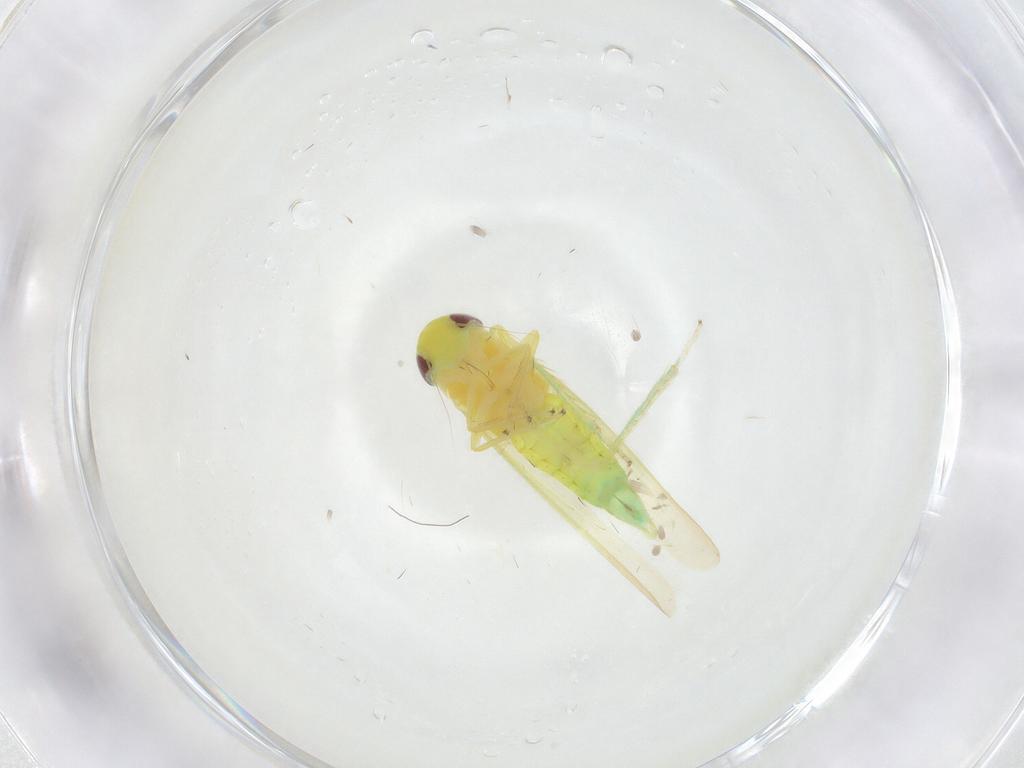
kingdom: Animalia
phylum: Arthropoda
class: Insecta
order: Hemiptera
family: Cicadellidae
